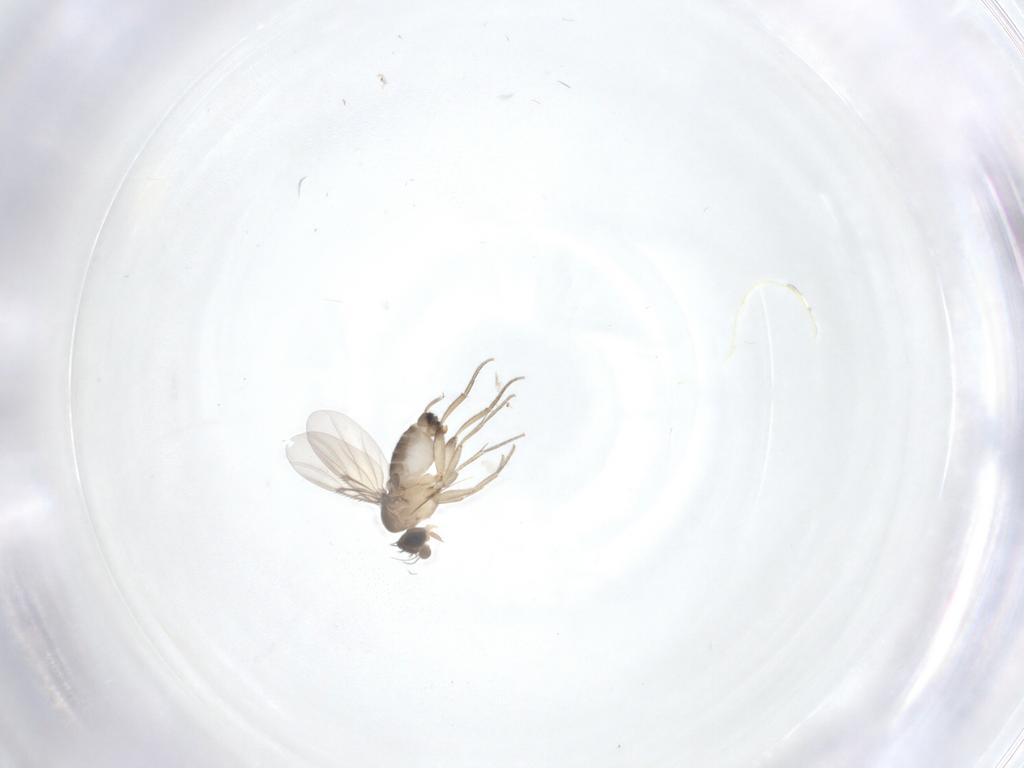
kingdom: Animalia
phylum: Arthropoda
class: Insecta
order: Diptera
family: Phoridae
